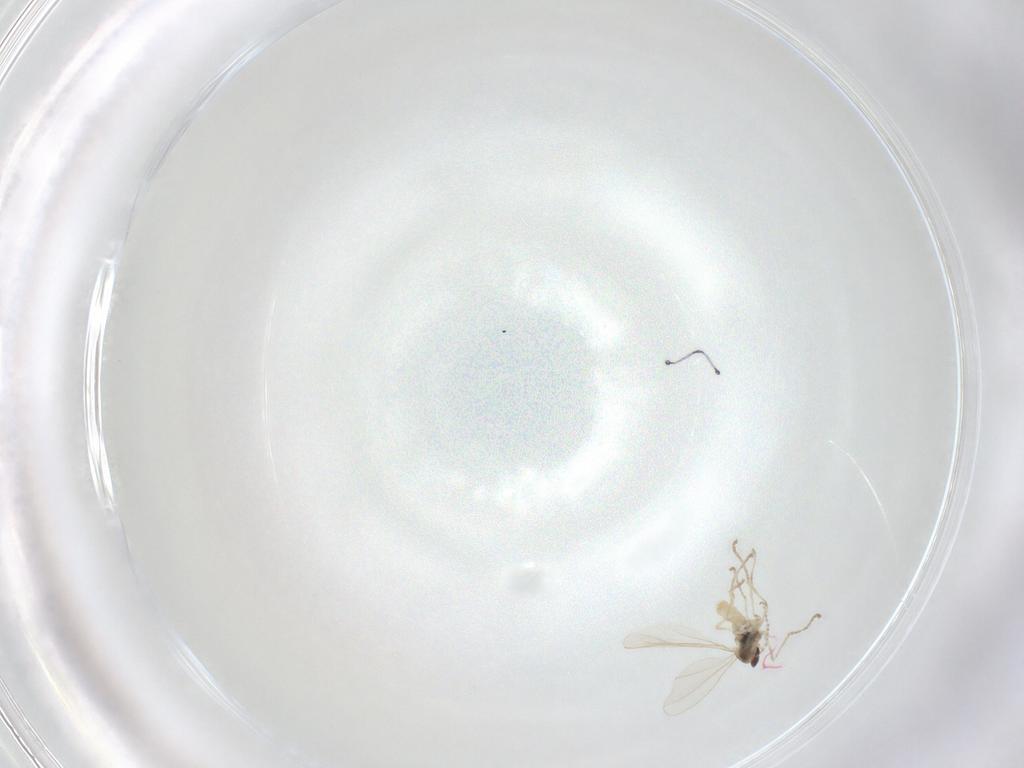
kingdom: Animalia
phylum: Arthropoda
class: Insecta
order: Diptera
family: Cecidomyiidae
